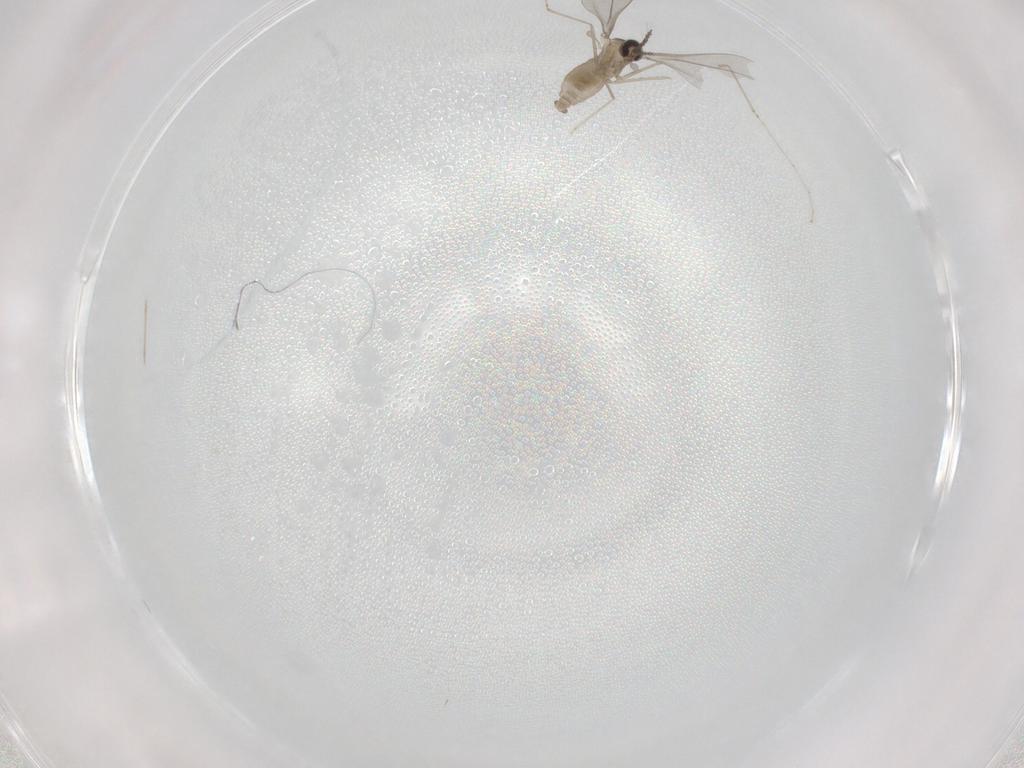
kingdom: Animalia
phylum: Arthropoda
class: Insecta
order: Diptera
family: Cecidomyiidae
